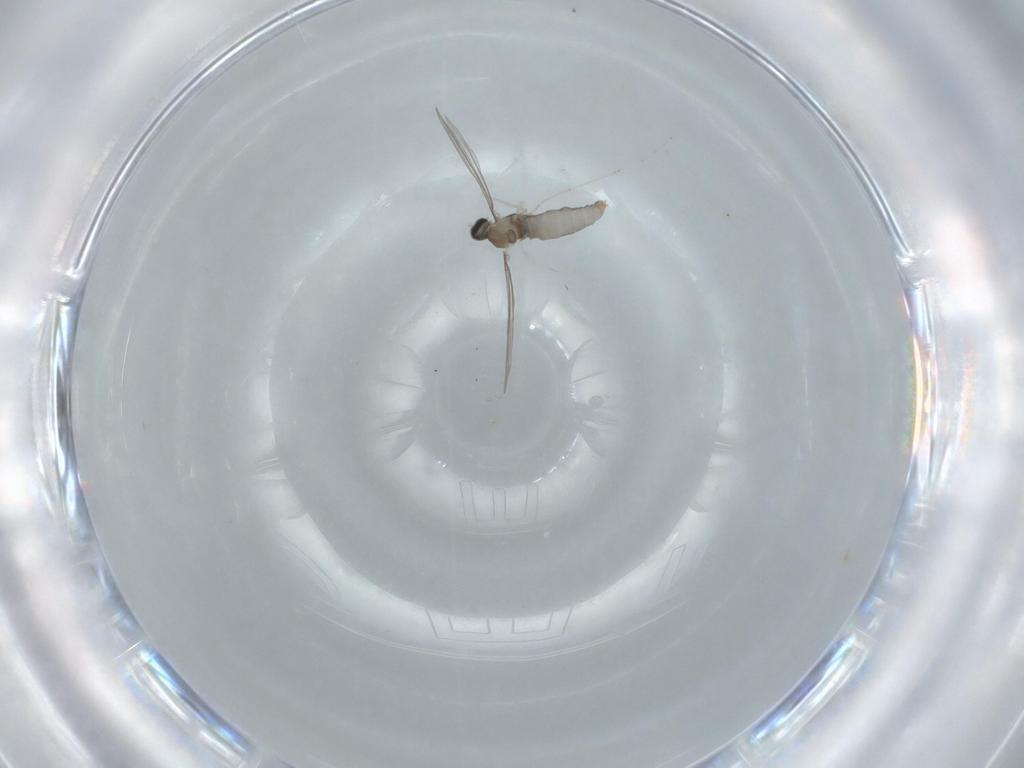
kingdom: Animalia
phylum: Arthropoda
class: Insecta
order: Diptera
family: Cecidomyiidae
